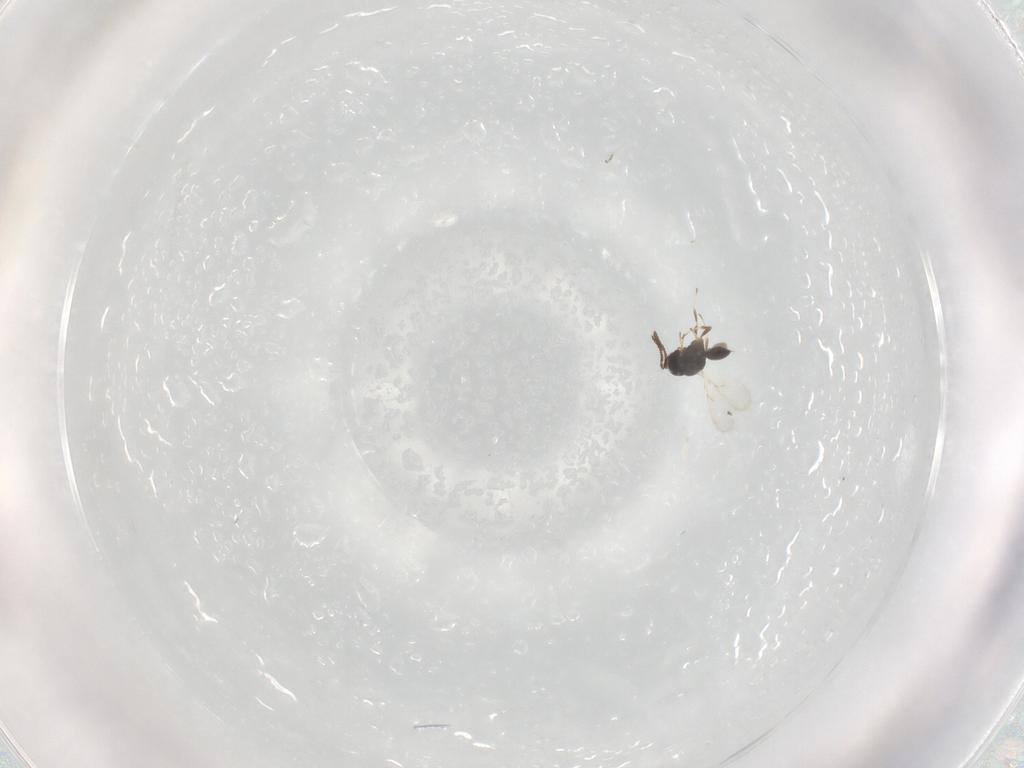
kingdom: Animalia
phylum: Arthropoda
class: Insecta
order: Hymenoptera
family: Scelionidae
